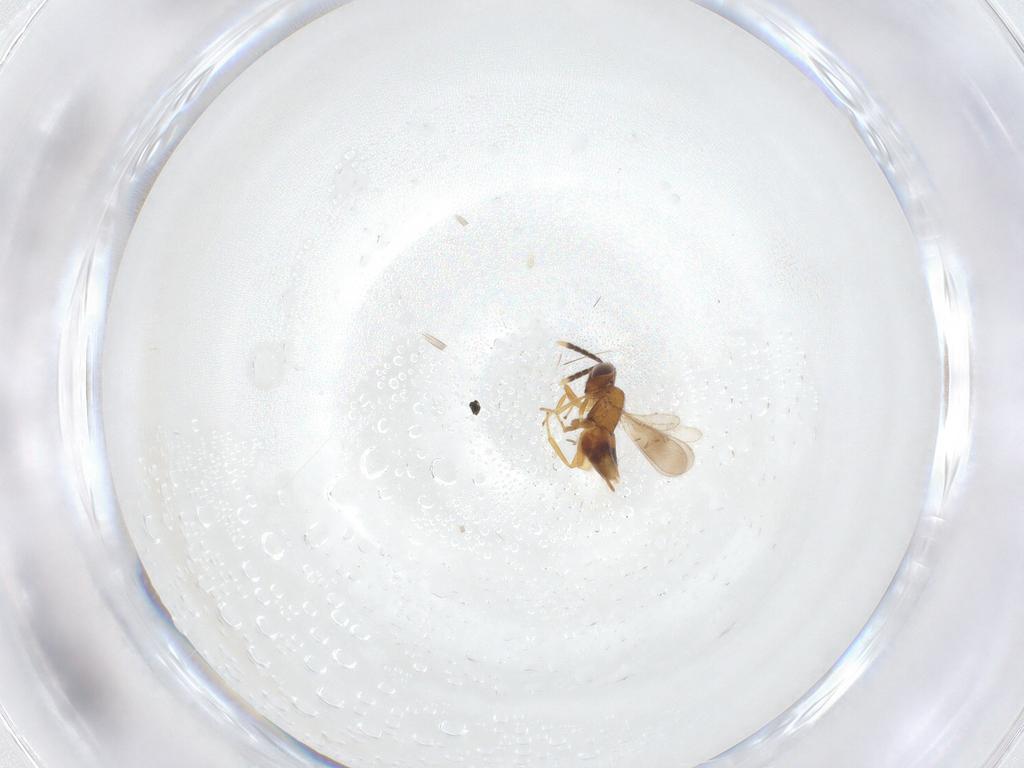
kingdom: Animalia
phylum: Arthropoda
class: Insecta
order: Hymenoptera
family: Aphelinidae
